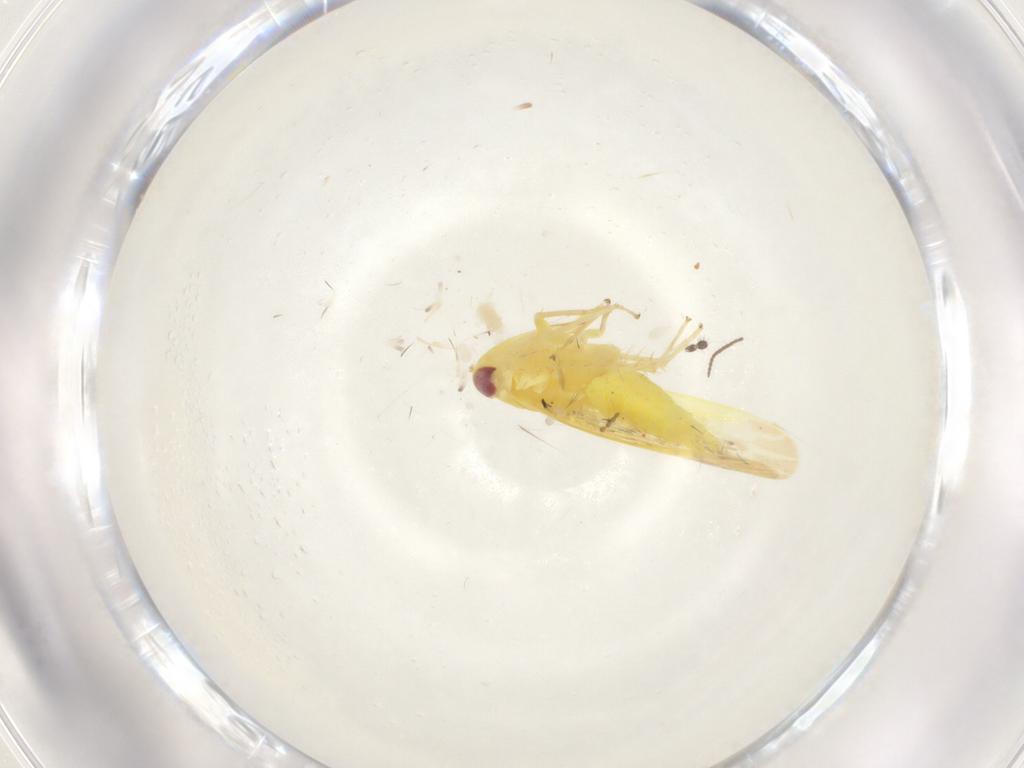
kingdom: Animalia
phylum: Arthropoda
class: Insecta
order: Hemiptera
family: Cicadellidae
